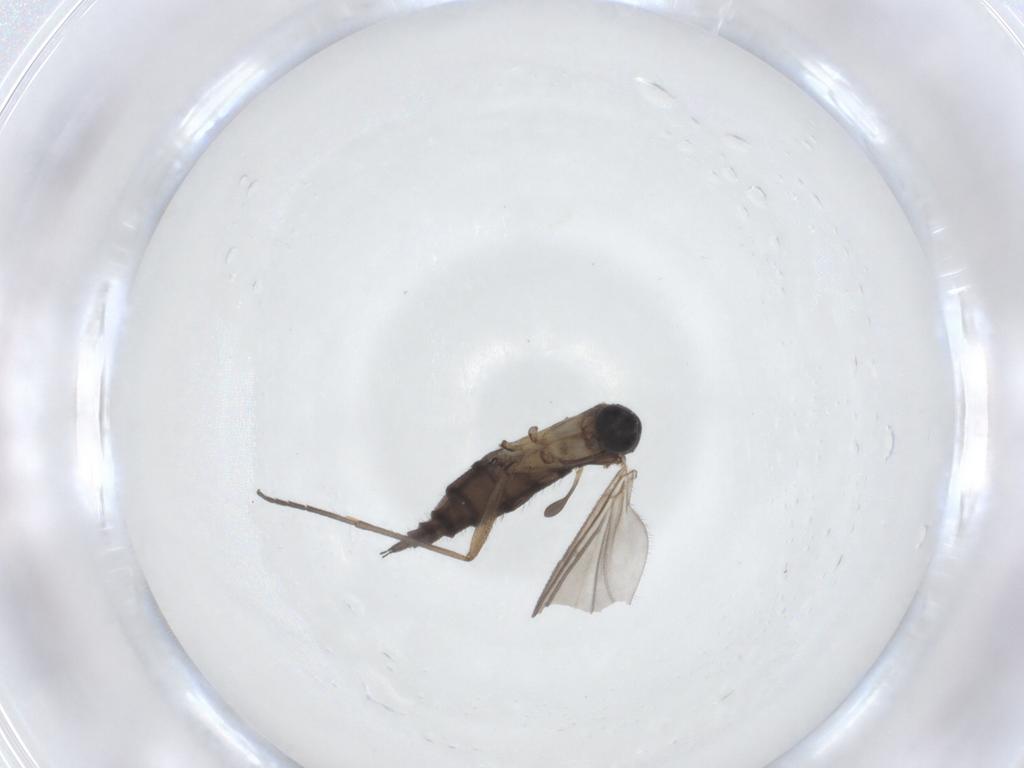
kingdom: Animalia
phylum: Arthropoda
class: Insecta
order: Diptera
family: Sciaridae
